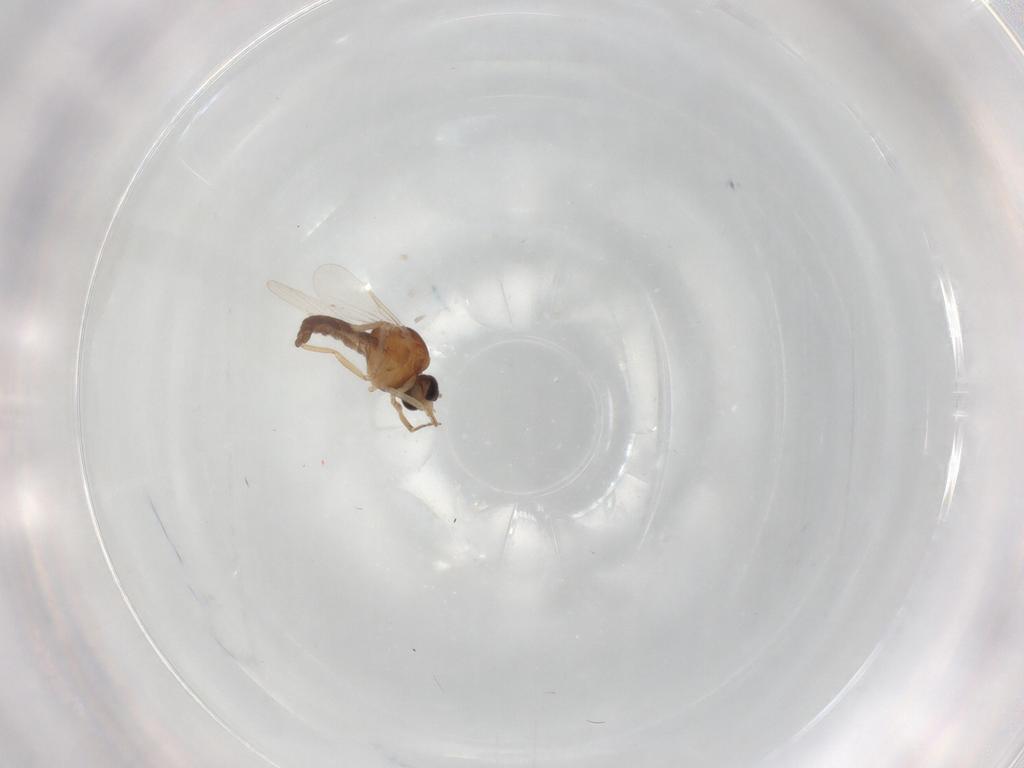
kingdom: Animalia
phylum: Arthropoda
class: Insecta
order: Diptera
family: Ceratopogonidae
